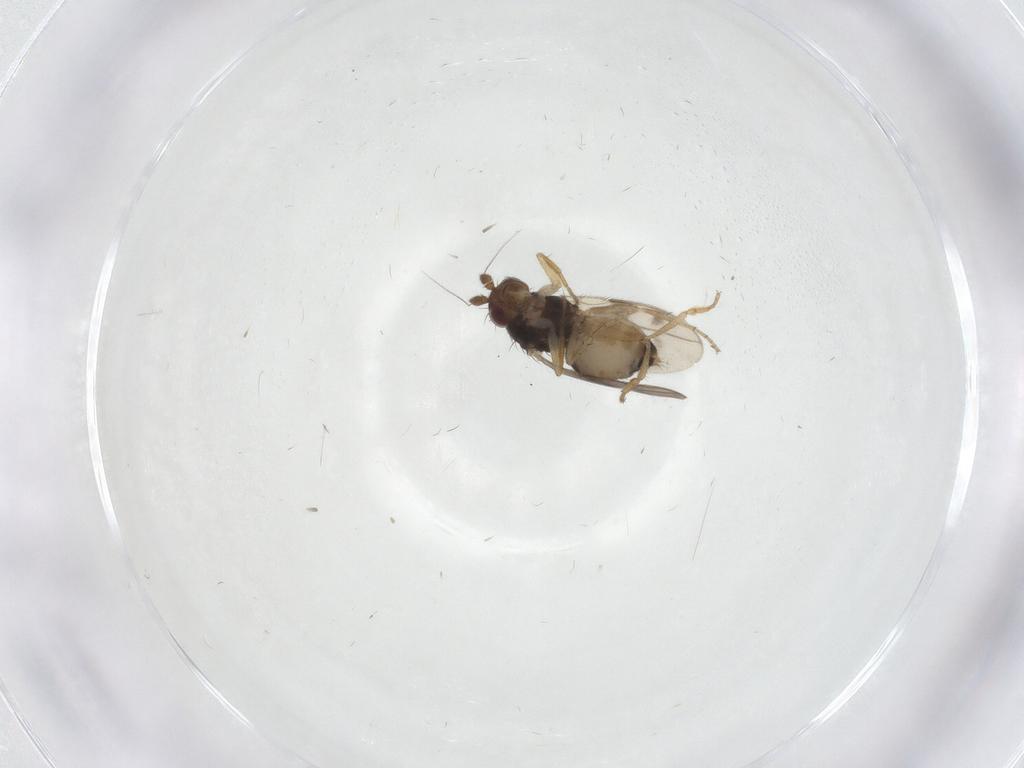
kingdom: Animalia
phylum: Arthropoda
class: Insecta
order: Diptera
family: Sphaeroceridae
